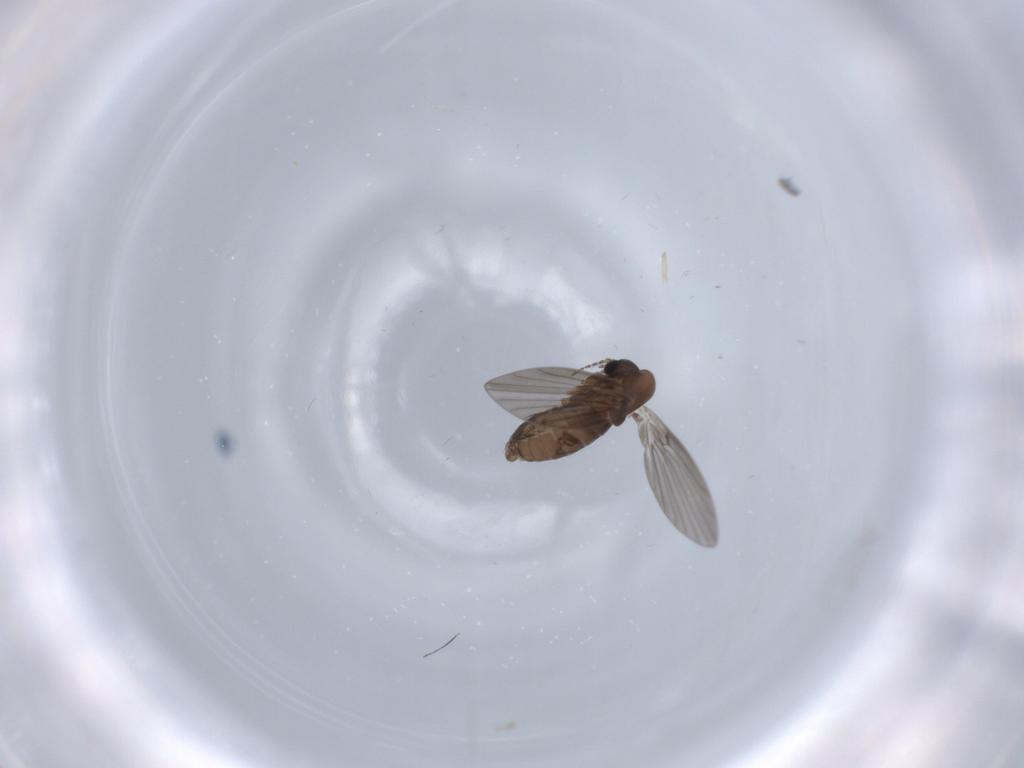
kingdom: Animalia
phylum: Arthropoda
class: Insecta
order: Diptera
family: Psychodidae
